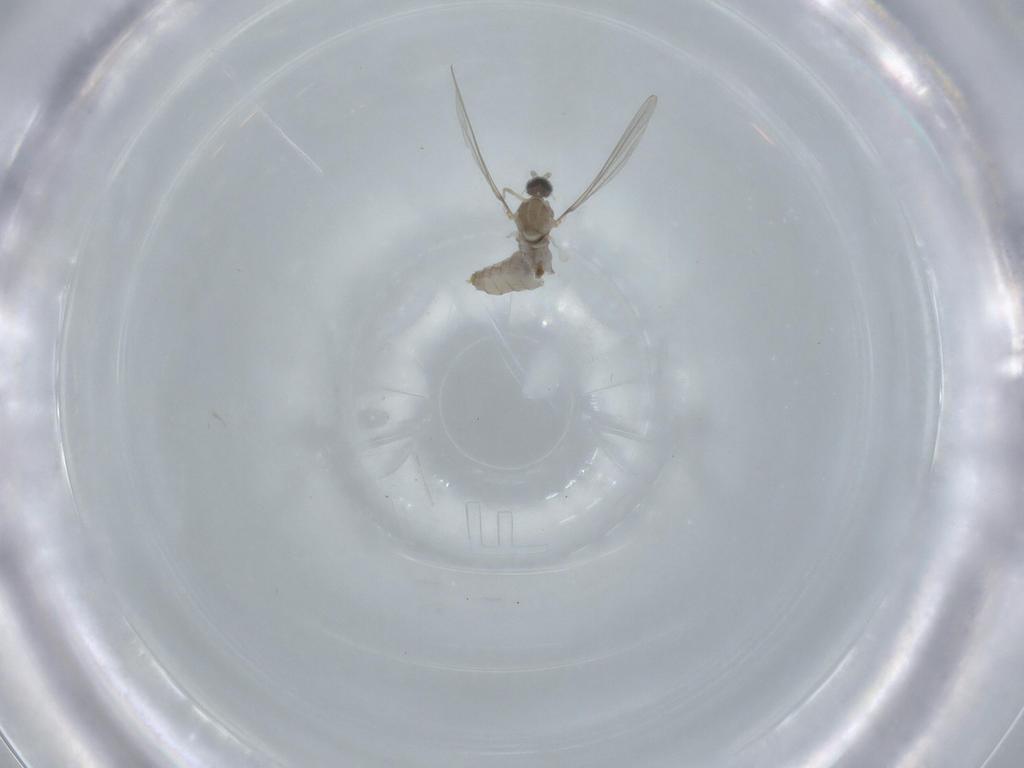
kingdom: Animalia
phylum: Arthropoda
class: Insecta
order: Diptera
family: Cecidomyiidae
